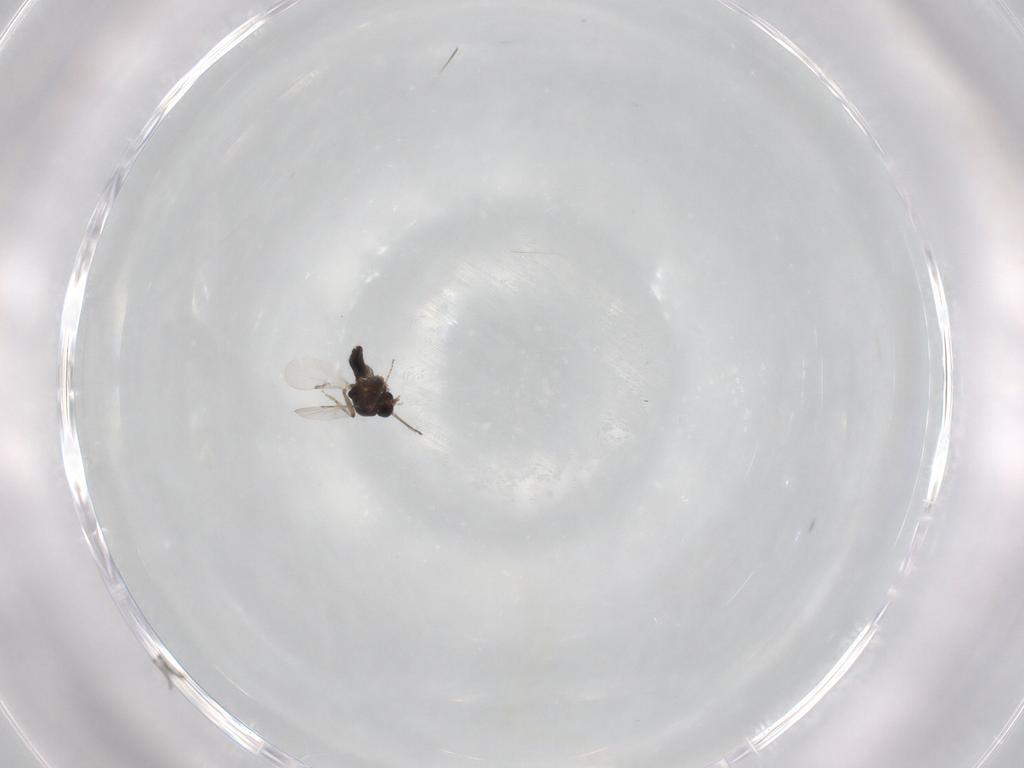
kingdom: Animalia
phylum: Arthropoda
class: Insecta
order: Diptera
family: Ceratopogonidae
